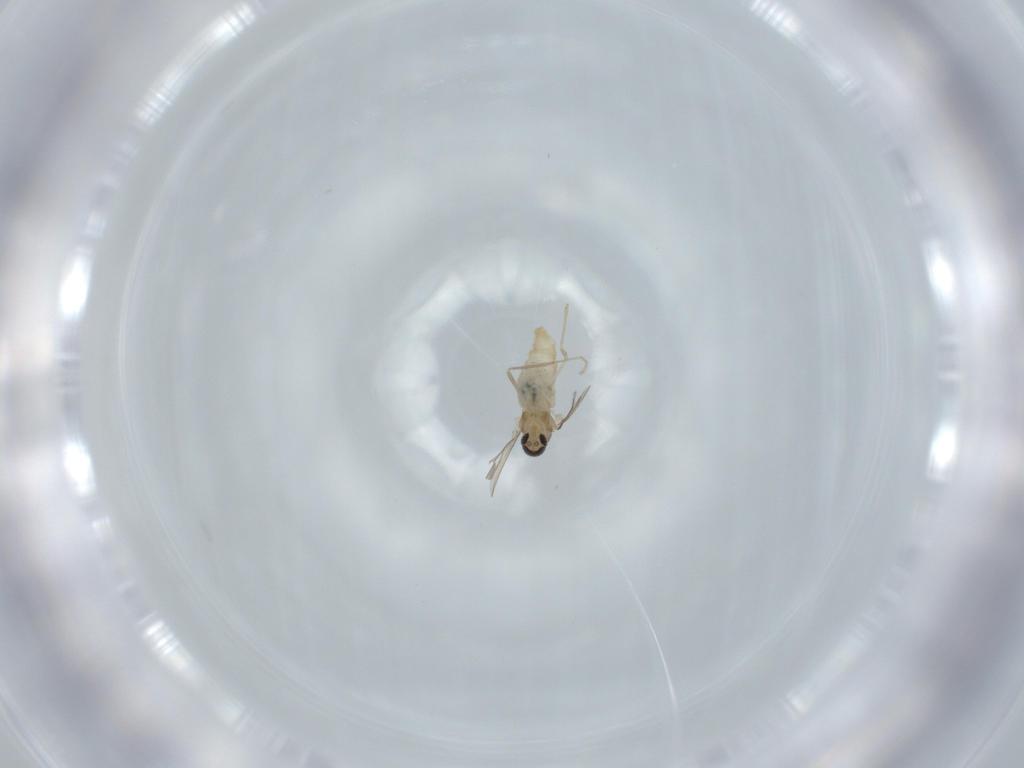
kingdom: Animalia
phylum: Arthropoda
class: Insecta
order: Diptera
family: Cecidomyiidae
